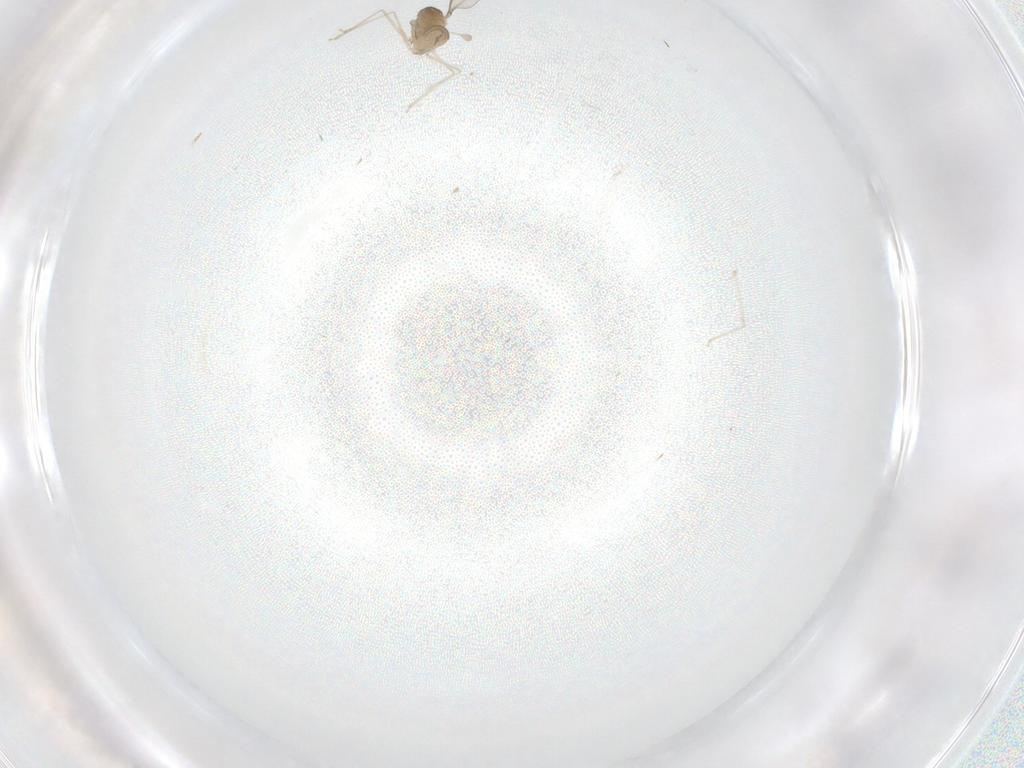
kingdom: Animalia
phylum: Arthropoda
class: Insecta
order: Diptera
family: Cecidomyiidae
